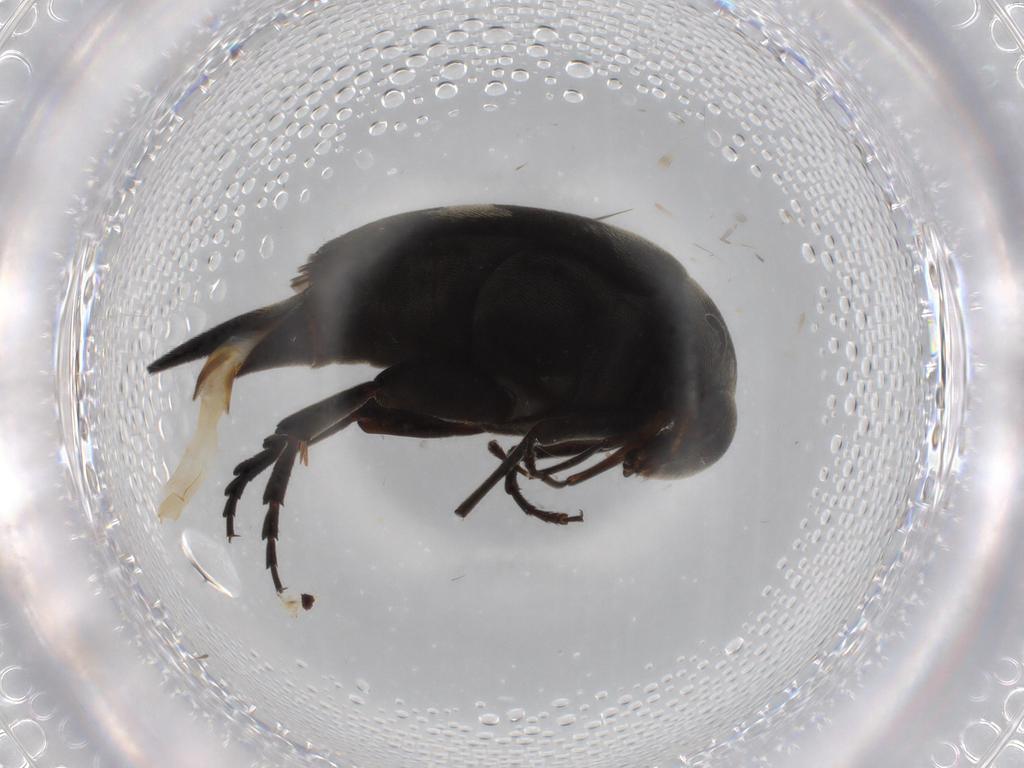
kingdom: Animalia
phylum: Arthropoda
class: Insecta
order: Coleoptera
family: Mordellidae
